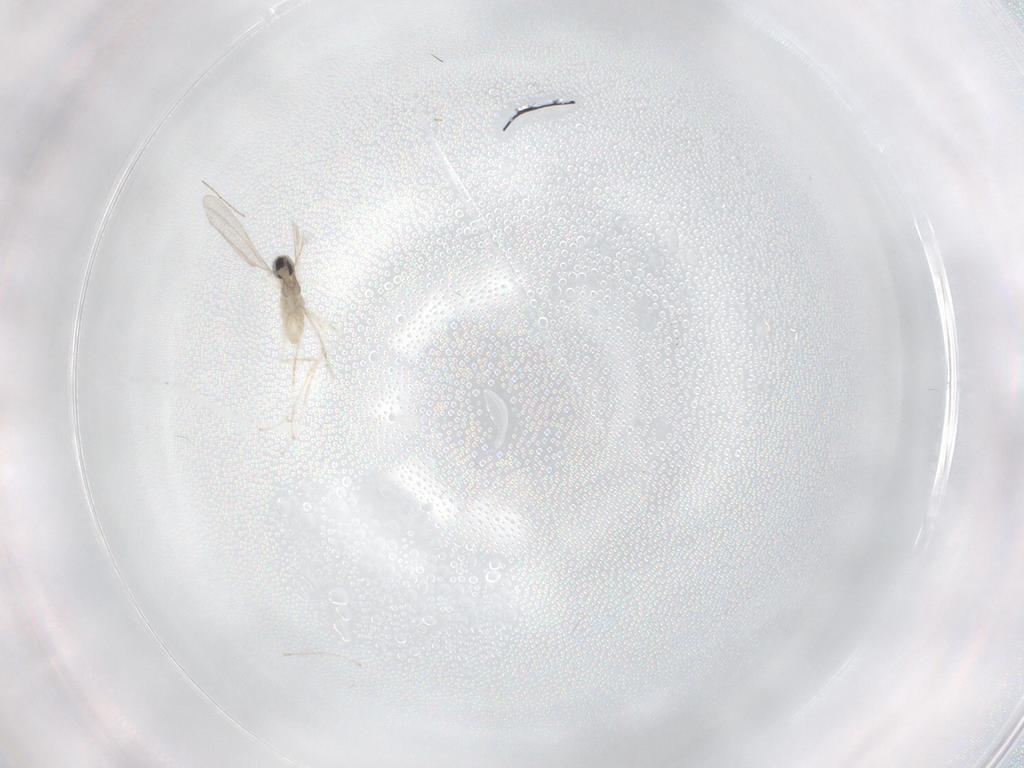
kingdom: Animalia
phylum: Arthropoda
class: Insecta
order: Diptera
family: Cecidomyiidae
